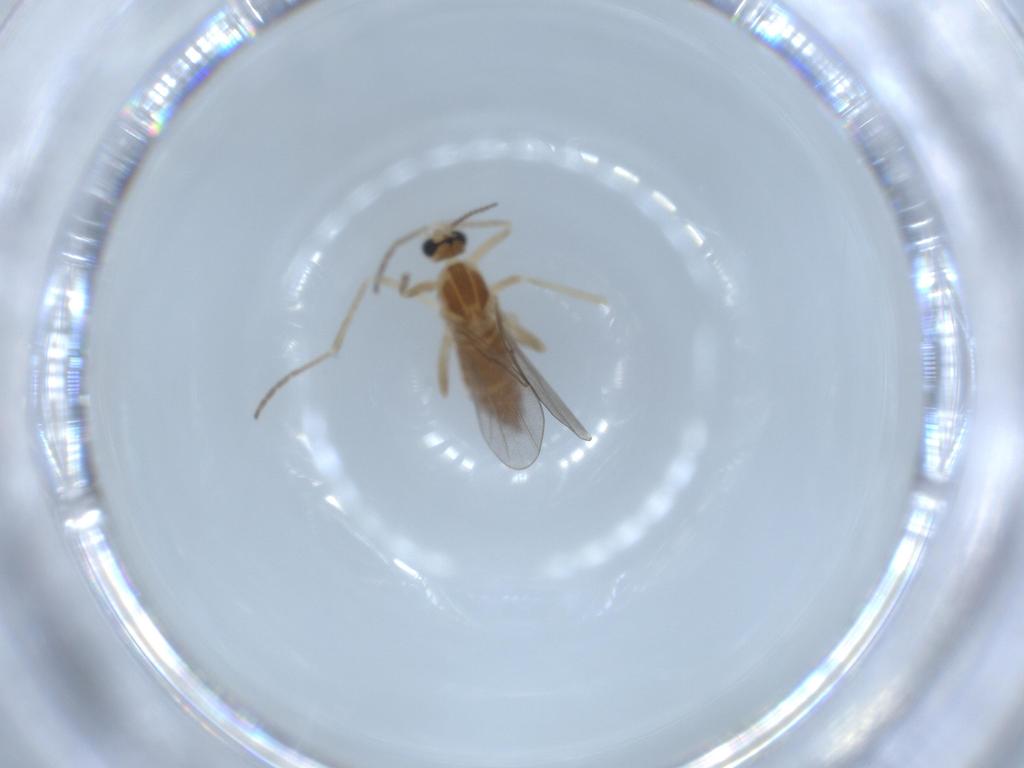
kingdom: Animalia
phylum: Arthropoda
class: Insecta
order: Diptera
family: Cecidomyiidae
